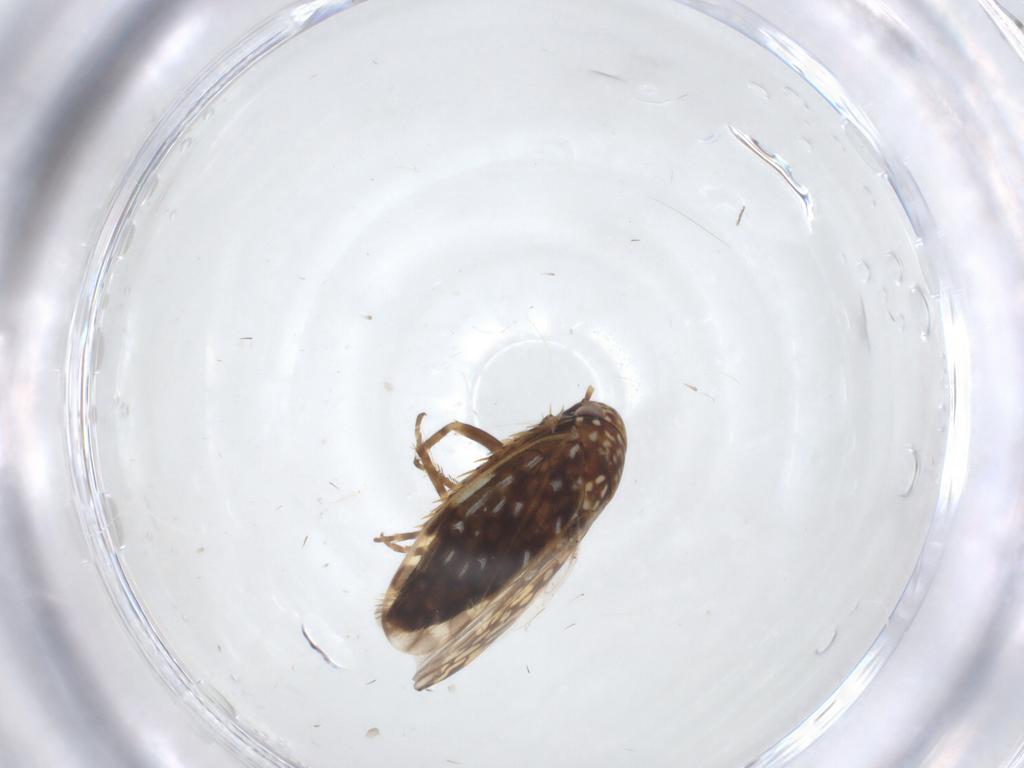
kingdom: Animalia
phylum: Arthropoda
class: Insecta
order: Hemiptera
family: Cicadellidae
